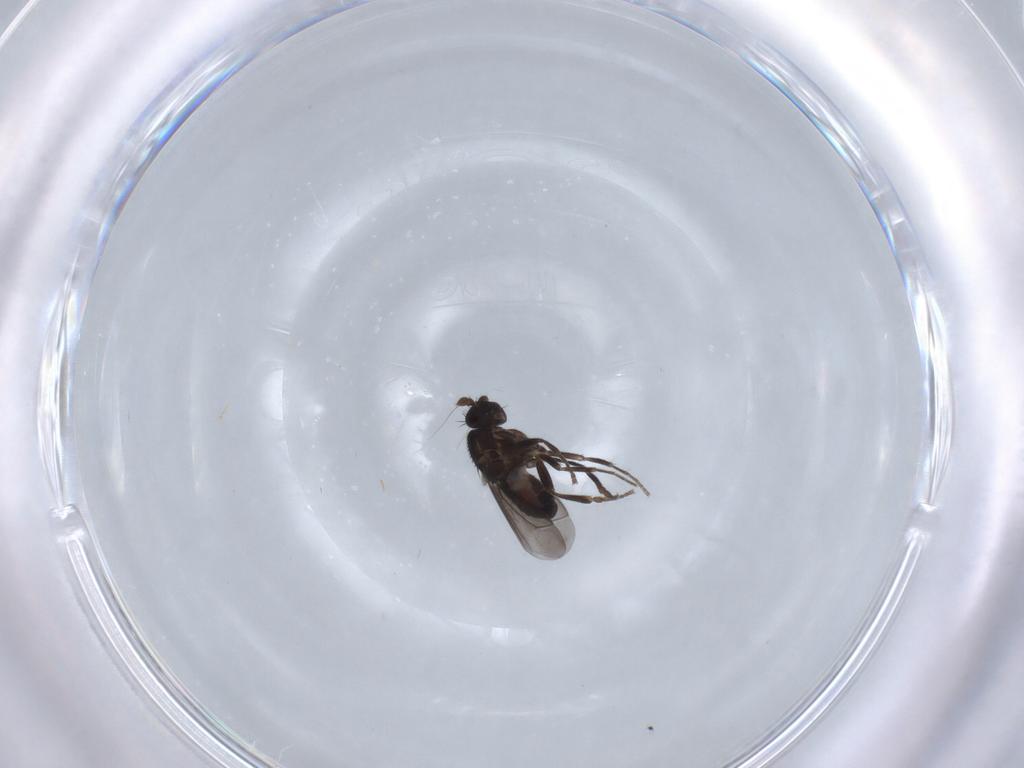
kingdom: Animalia
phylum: Arthropoda
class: Insecta
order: Diptera
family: Sphaeroceridae
